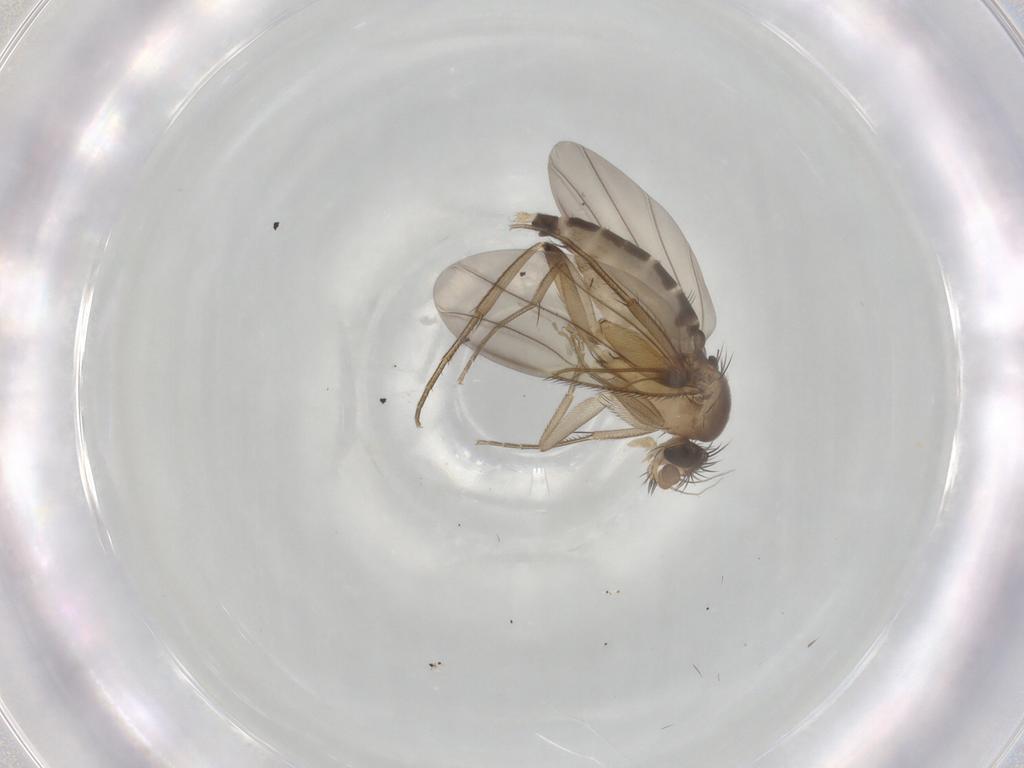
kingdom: Animalia
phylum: Arthropoda
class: Insecta
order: Diptera
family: Phoridae
